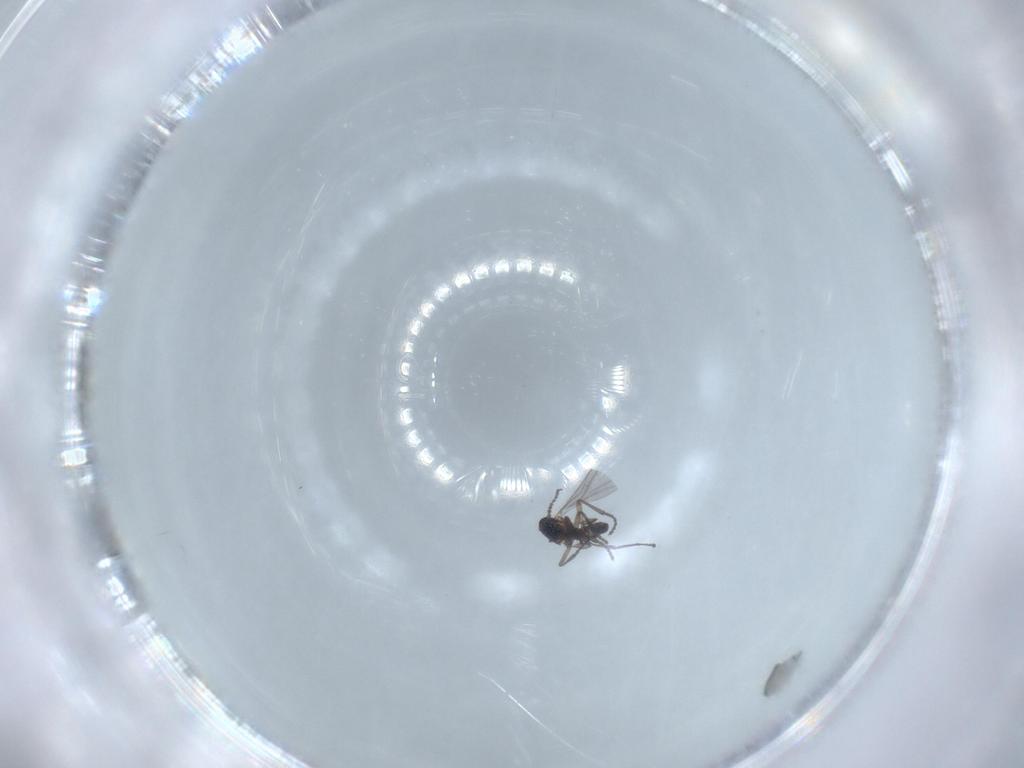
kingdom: Animalia
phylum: Arthropoda
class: Insecta
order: Diptera
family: Cecidomyiidae
